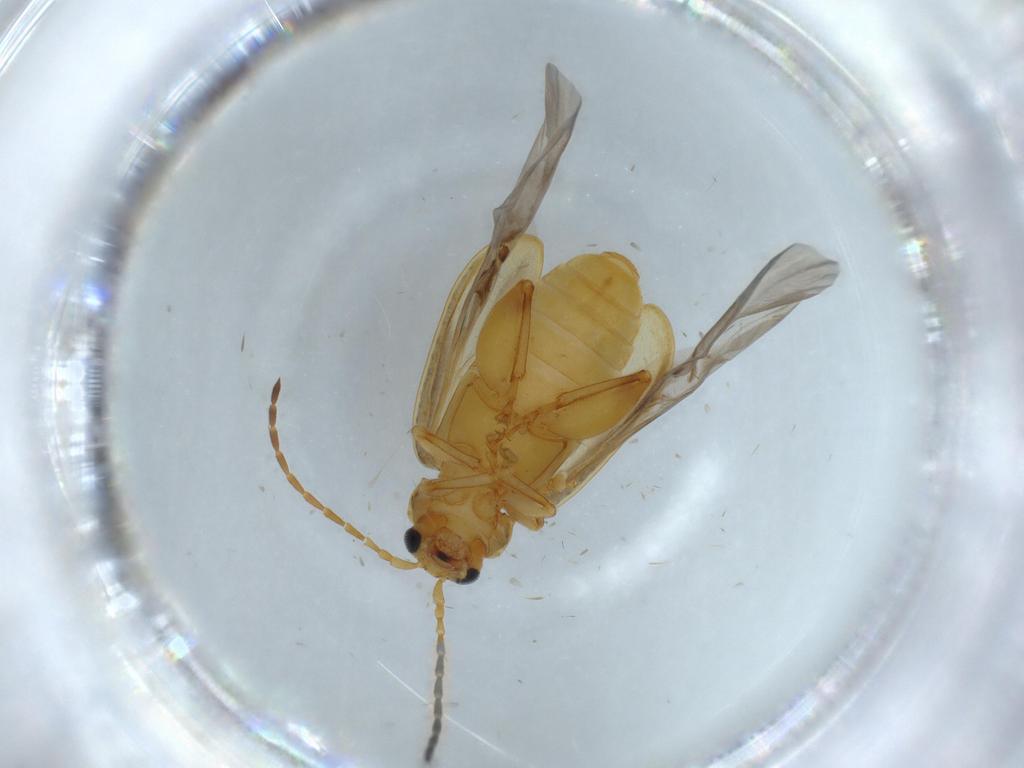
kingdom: Animalia
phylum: Arthropoda
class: Insecta
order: Coleoptera
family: Chrysomelidae
